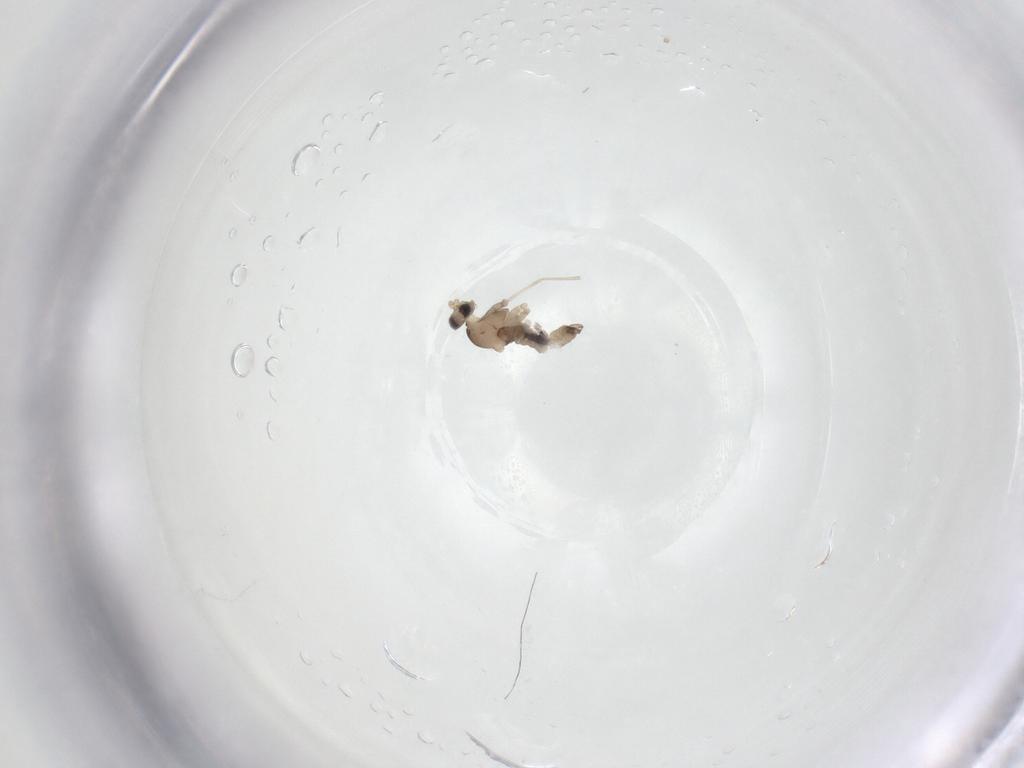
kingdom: Animalia
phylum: Arthropoda
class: Insecta
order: Diptera
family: Cecidomyiidae
